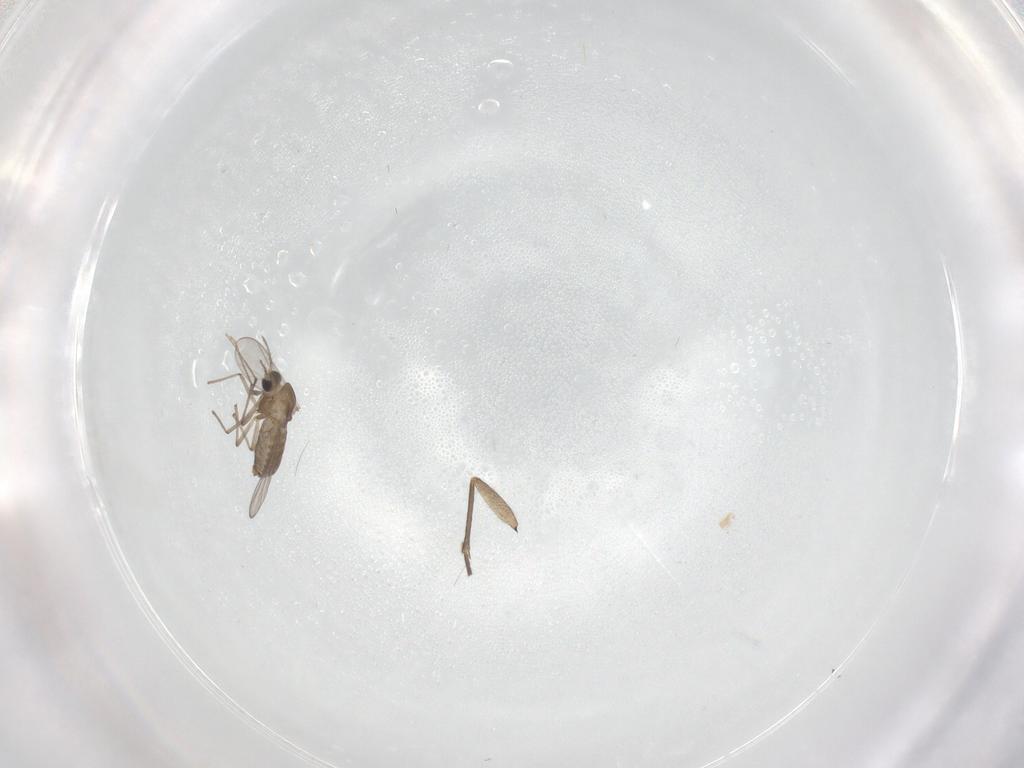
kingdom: Animalia
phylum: Arthropoda
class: Insecta
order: Diptera
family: Chironomidae
